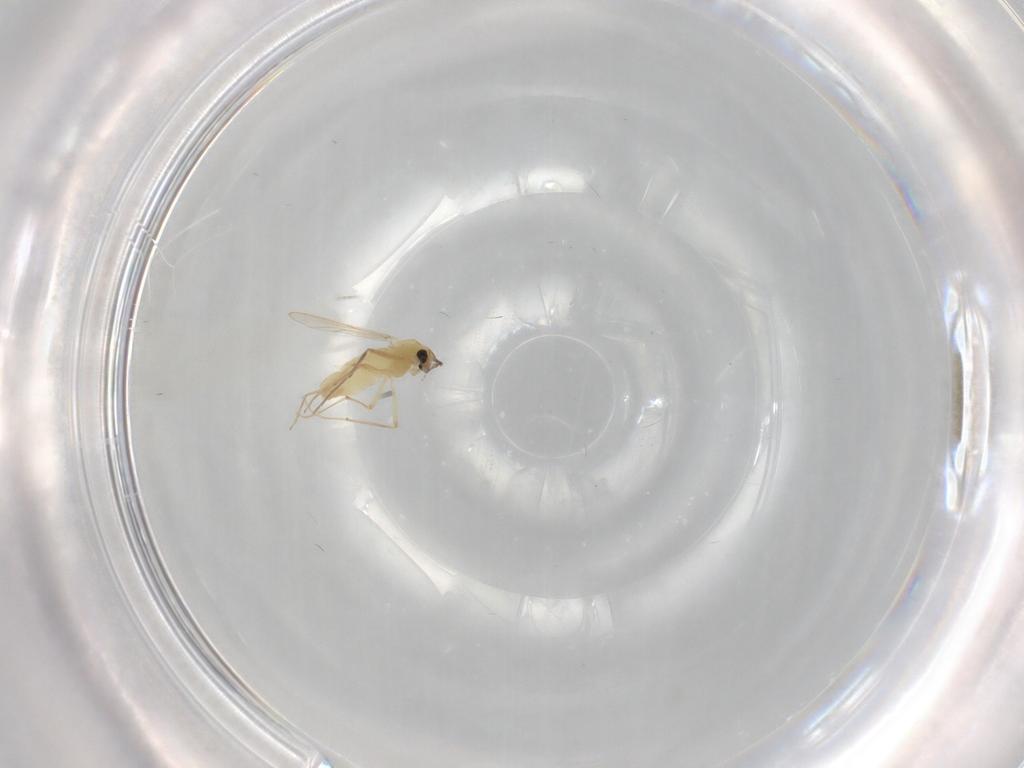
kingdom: Animalia
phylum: Arthropoda
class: Insecta
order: Diptera
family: Chironomidae
